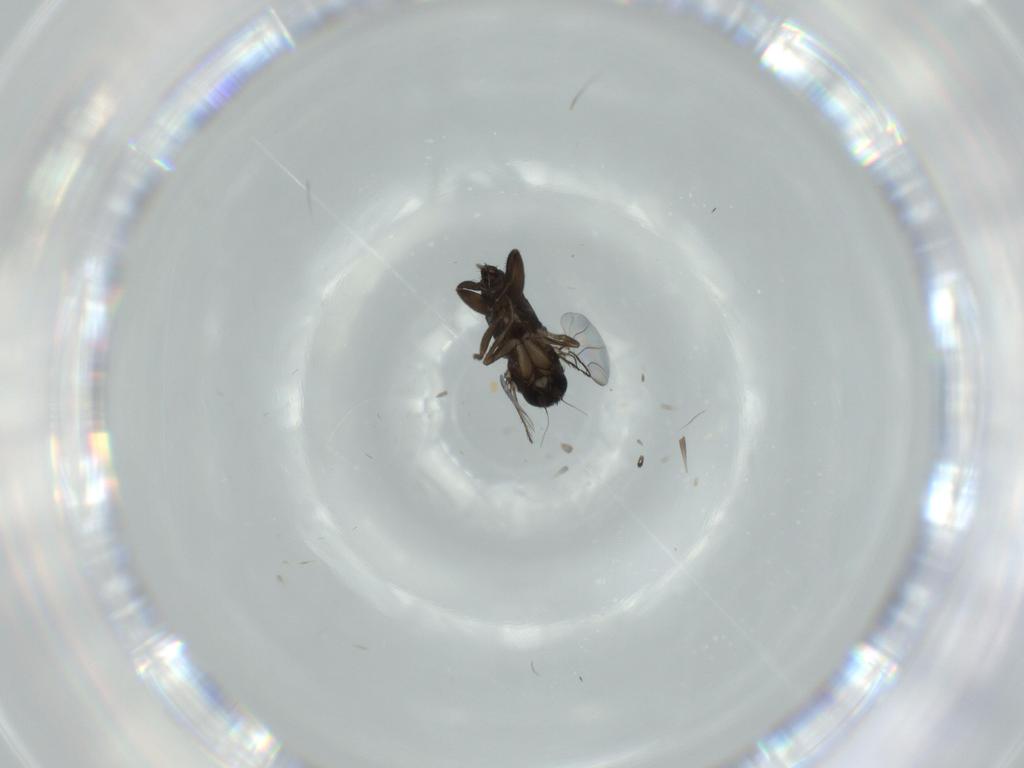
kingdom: Animalia
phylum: Arthropoda
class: Insecta
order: Diptera
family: Phoridae
